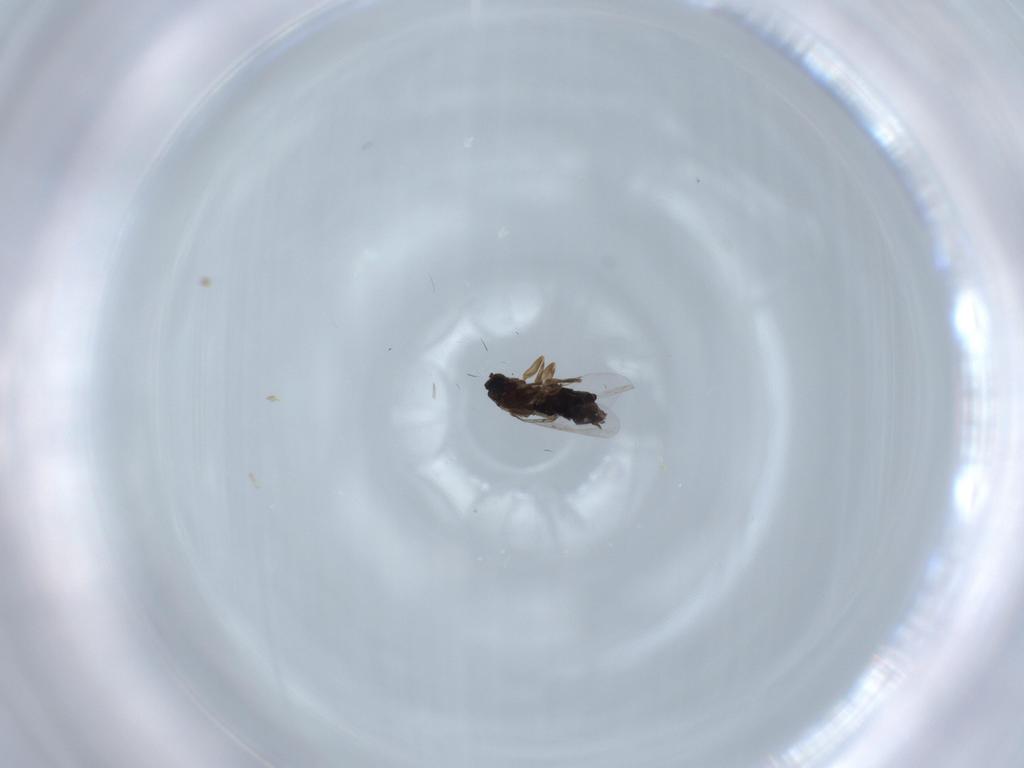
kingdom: Animalia
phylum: Arthropoda
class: Insecta
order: Diptera
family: Scatopsidae
